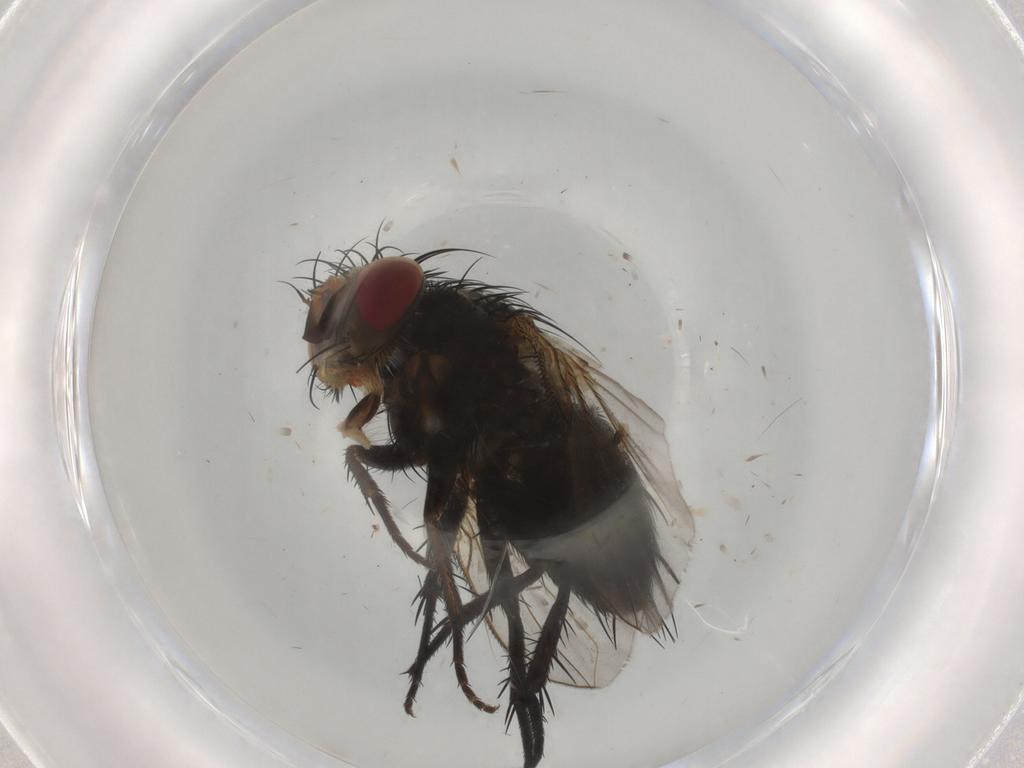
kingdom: Animalia
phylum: Arthropoda
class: Insecta
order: Diptera
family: Tachinidae
